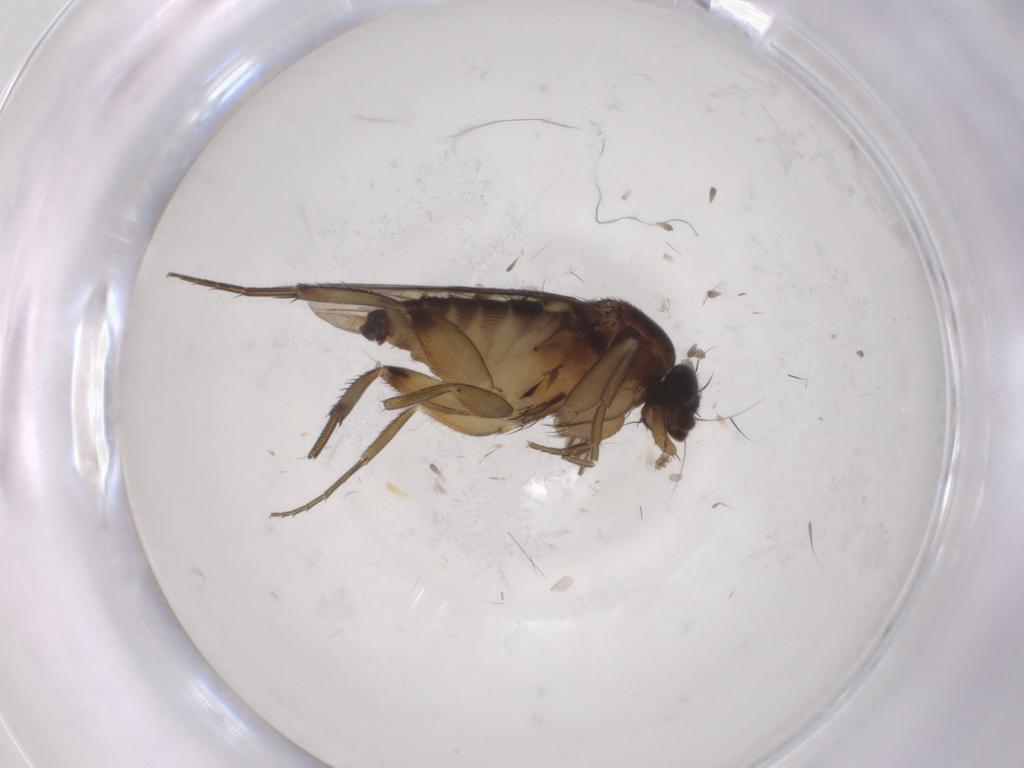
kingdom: Animalia
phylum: Arthropoda
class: Insecta
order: Diptera
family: Phoridae
